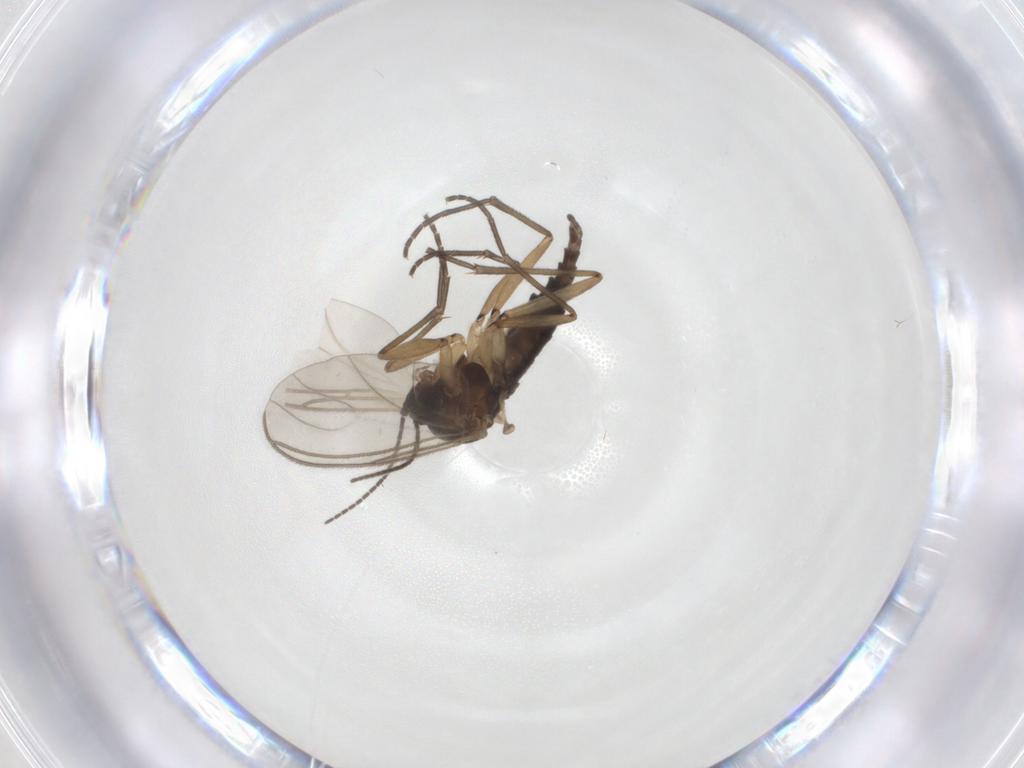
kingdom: Animalia
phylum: Arthropoda
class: Insecta
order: Diptera
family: Sciaridae
